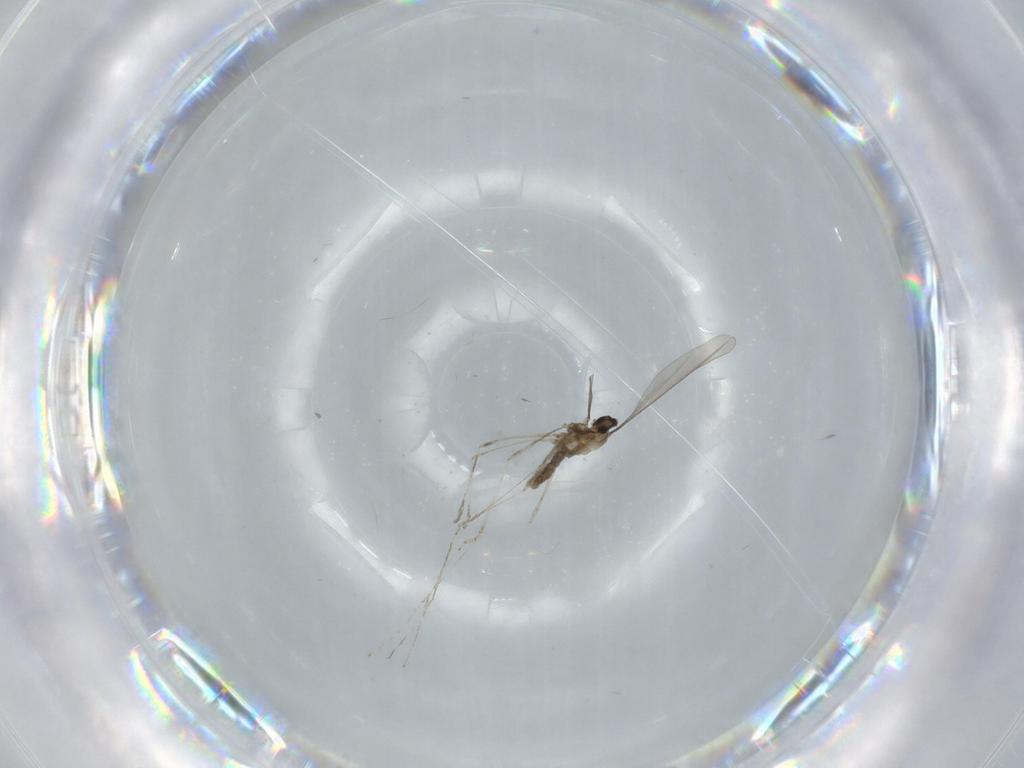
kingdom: Animalia
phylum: Arthropoda
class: Insecta
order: Diptera
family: Cecidomyiidae
